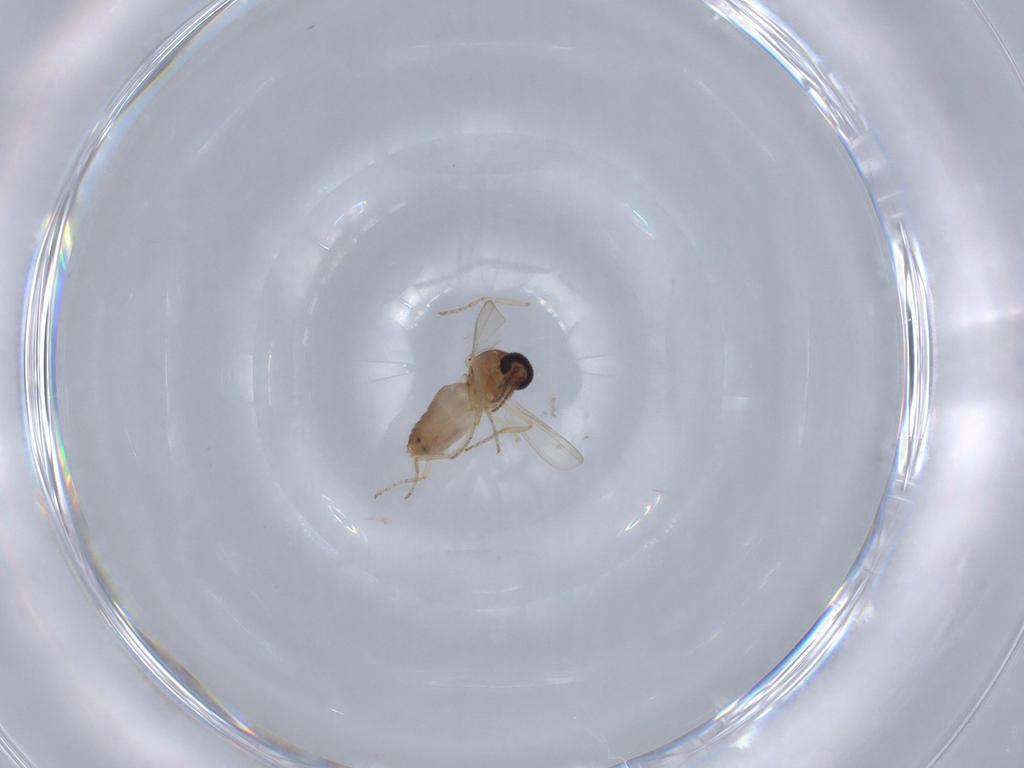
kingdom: Animalia
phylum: Arthropoda
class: Insecta
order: Diptera
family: Ceratopogonidae
